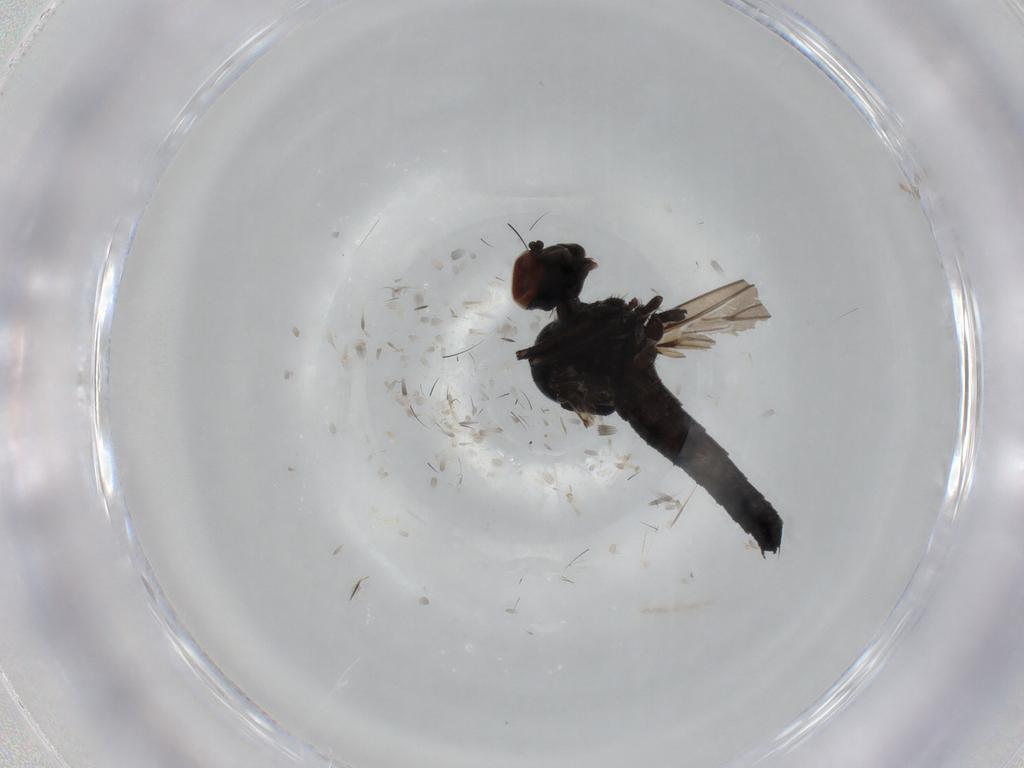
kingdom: Animalia
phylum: Arthropoda
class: Insecta
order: Diptera
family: Hybotidae
